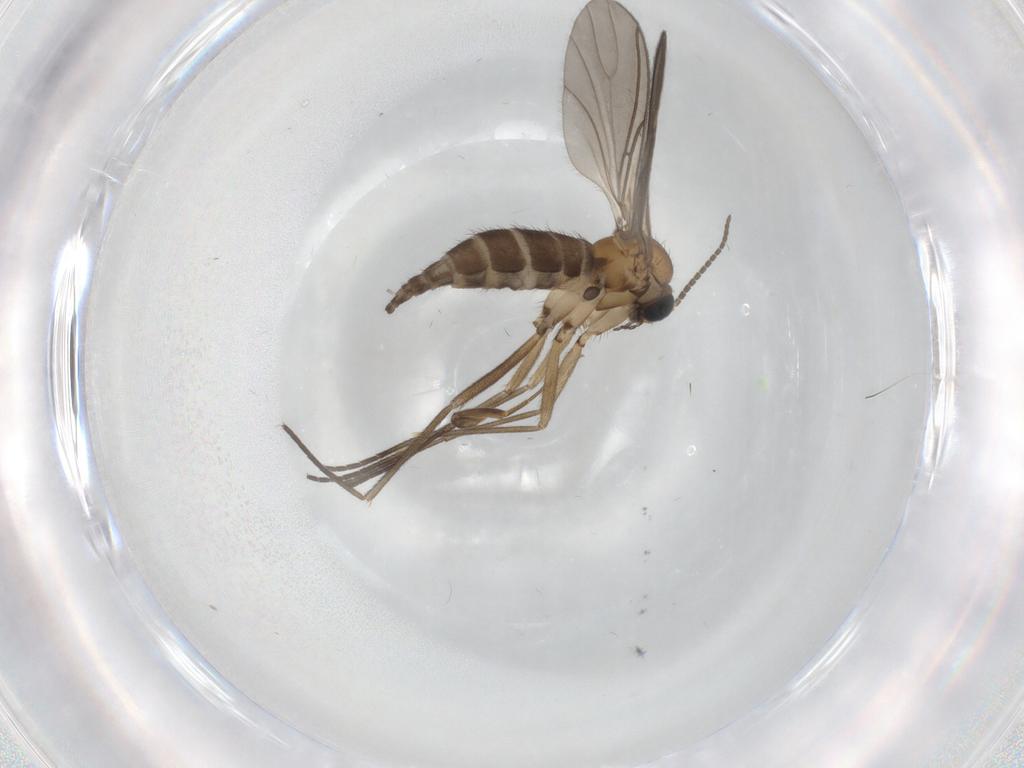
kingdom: Animalia
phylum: Arthropoda
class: Insecta
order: Diptera
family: Sciaridae
